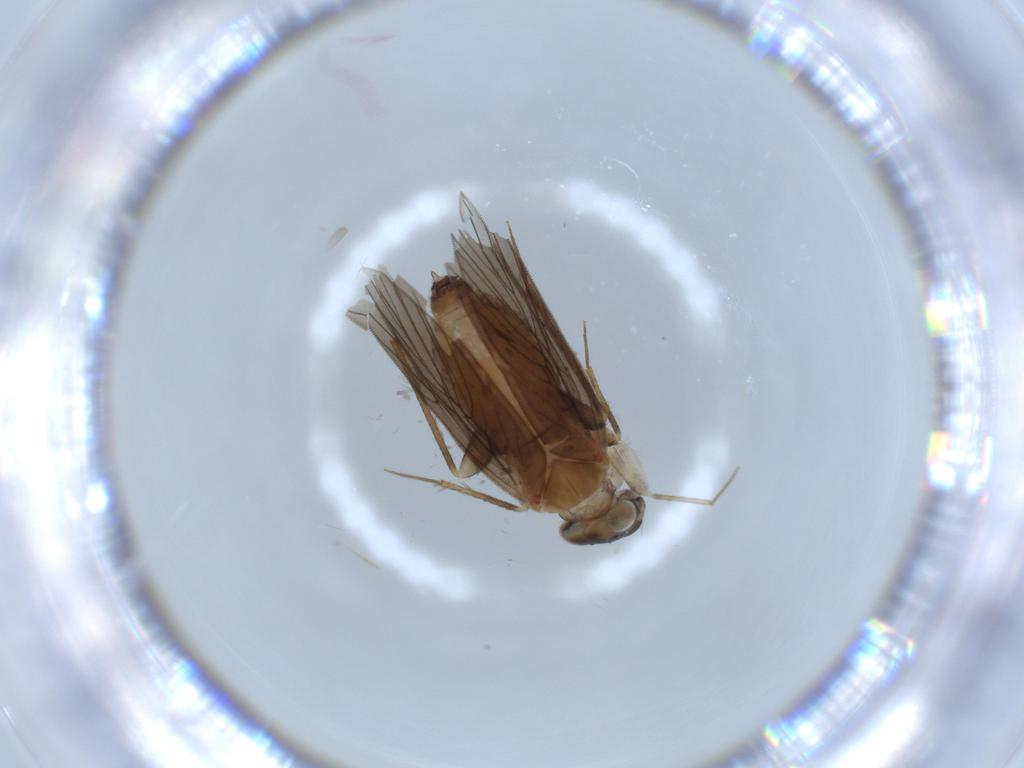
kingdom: Animalia
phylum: Arthropoda
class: Insecta
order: Psocodea
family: Lepidopsocidae
